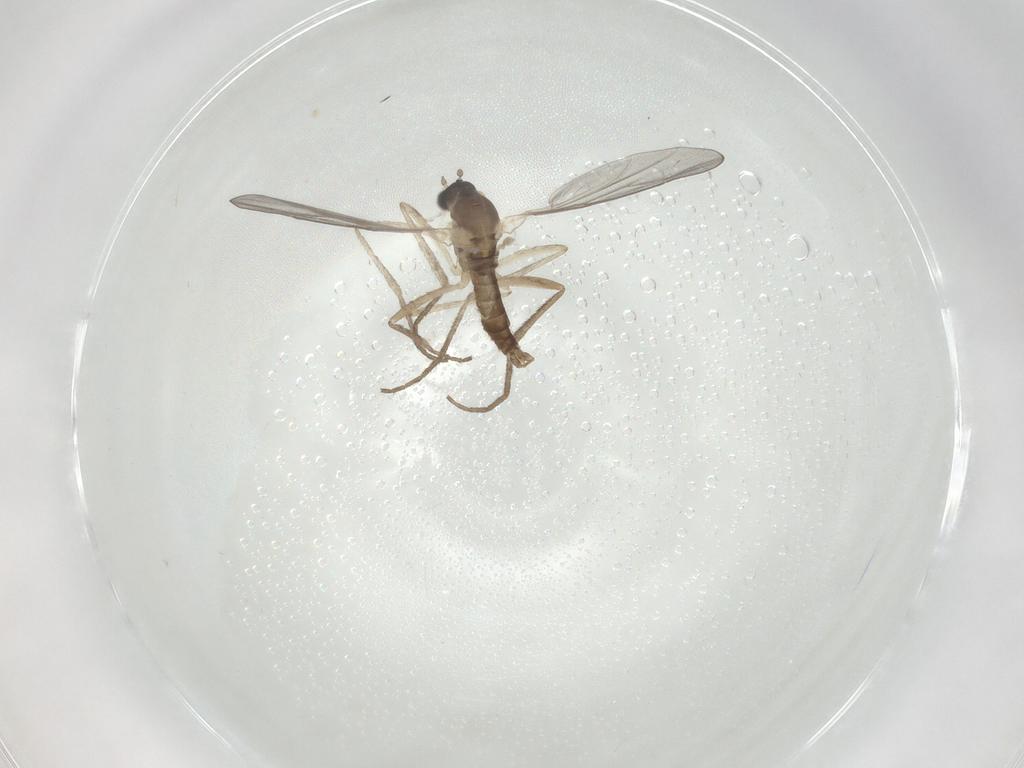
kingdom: Animalia
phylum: Arthropoda
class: Insecta
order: Diptera
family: Cecidomyiidae
